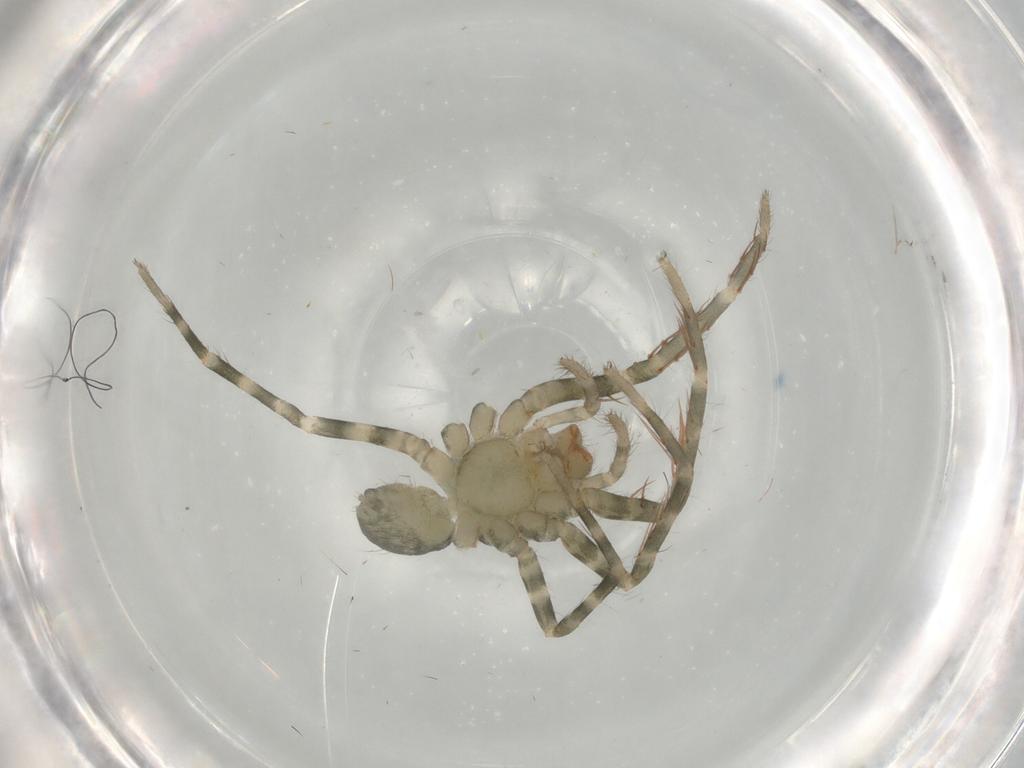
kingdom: Animalia
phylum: Arthropoda
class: Arachnida
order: Araneae
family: Ctenidae
